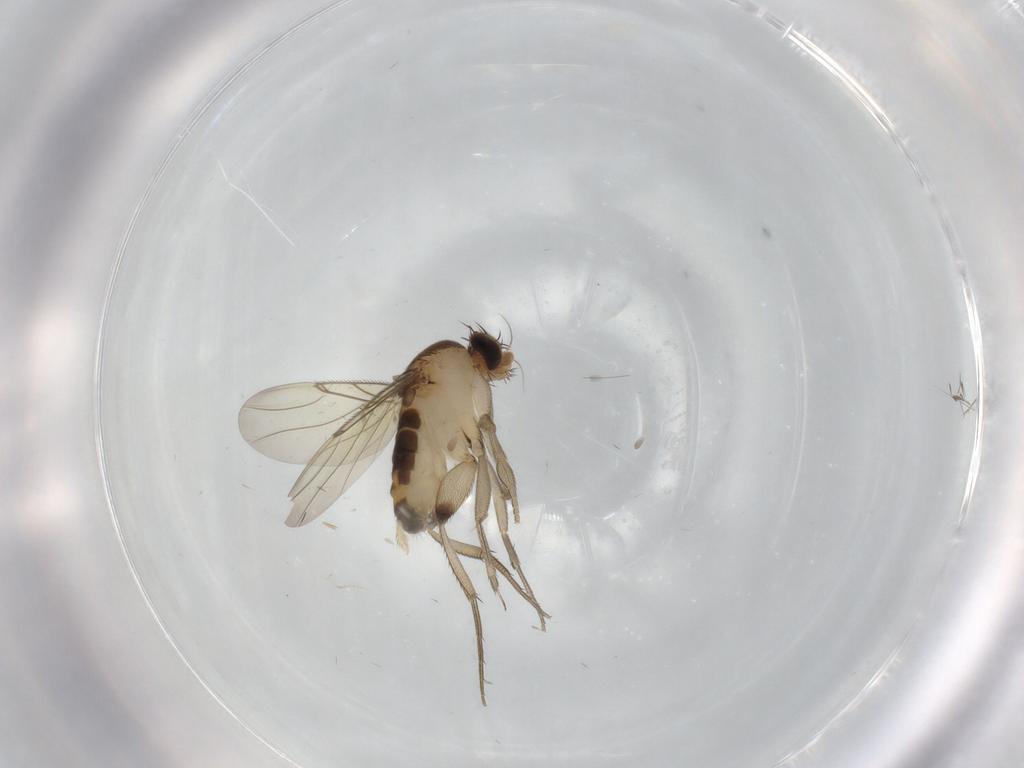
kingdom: Animalia
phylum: Arthropoda
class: Insecta
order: Diptera
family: Phoridae
